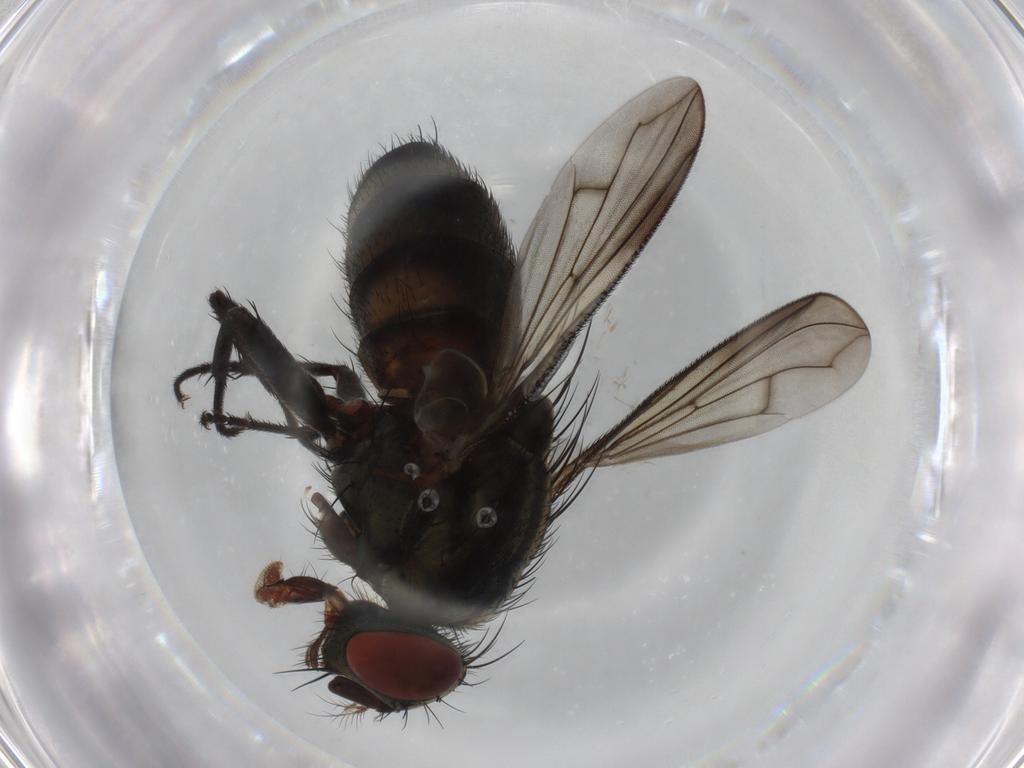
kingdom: Animalia
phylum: Arthropoda
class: Insecta
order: Diptera
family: Sarcophagidae
